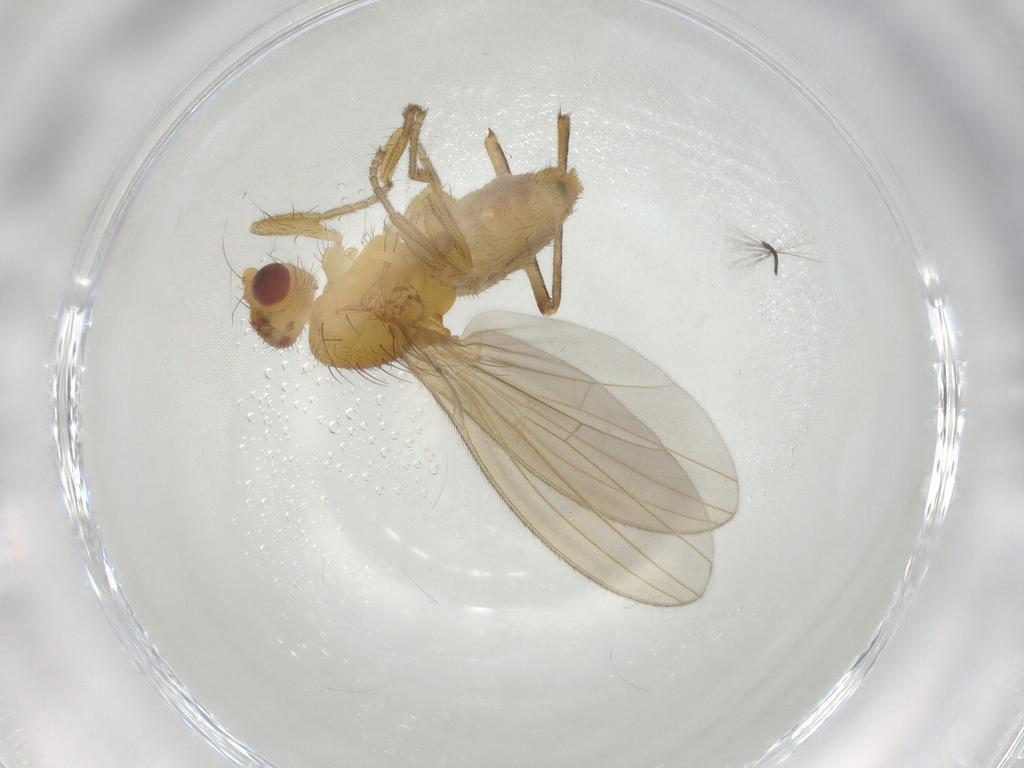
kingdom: Animalia
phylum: Arthropoda
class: Insecta
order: Diptera
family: Natalimyzidae
